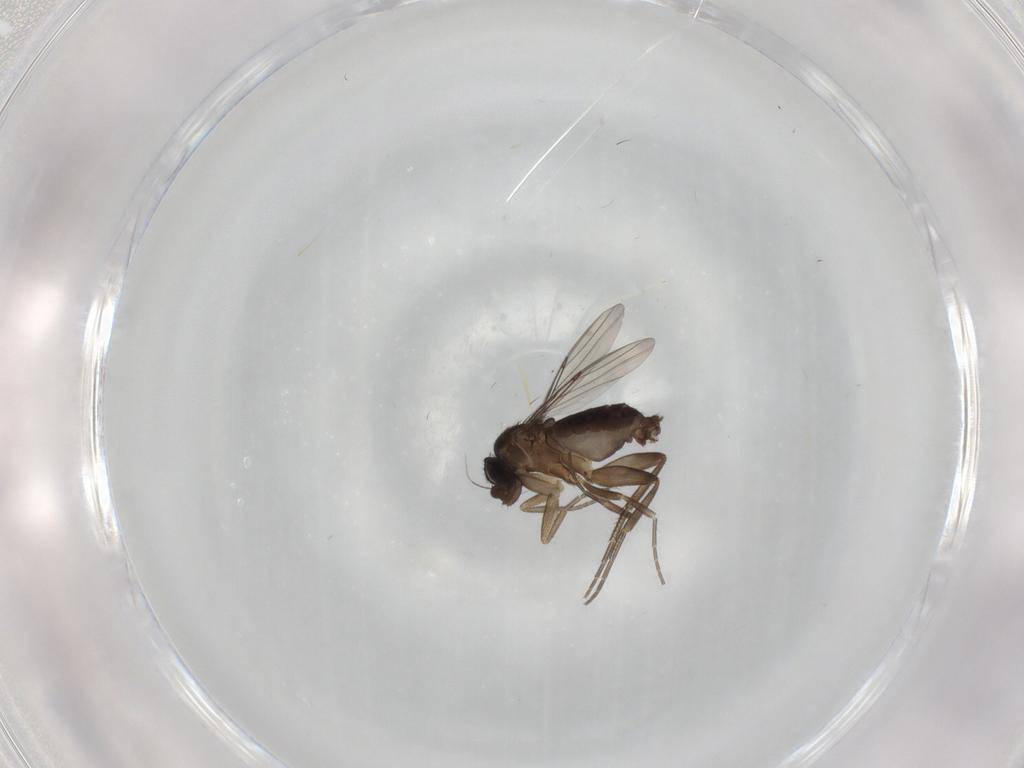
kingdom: Animalia
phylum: Arthropoda
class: Insecta
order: Diptera
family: Phoridae
